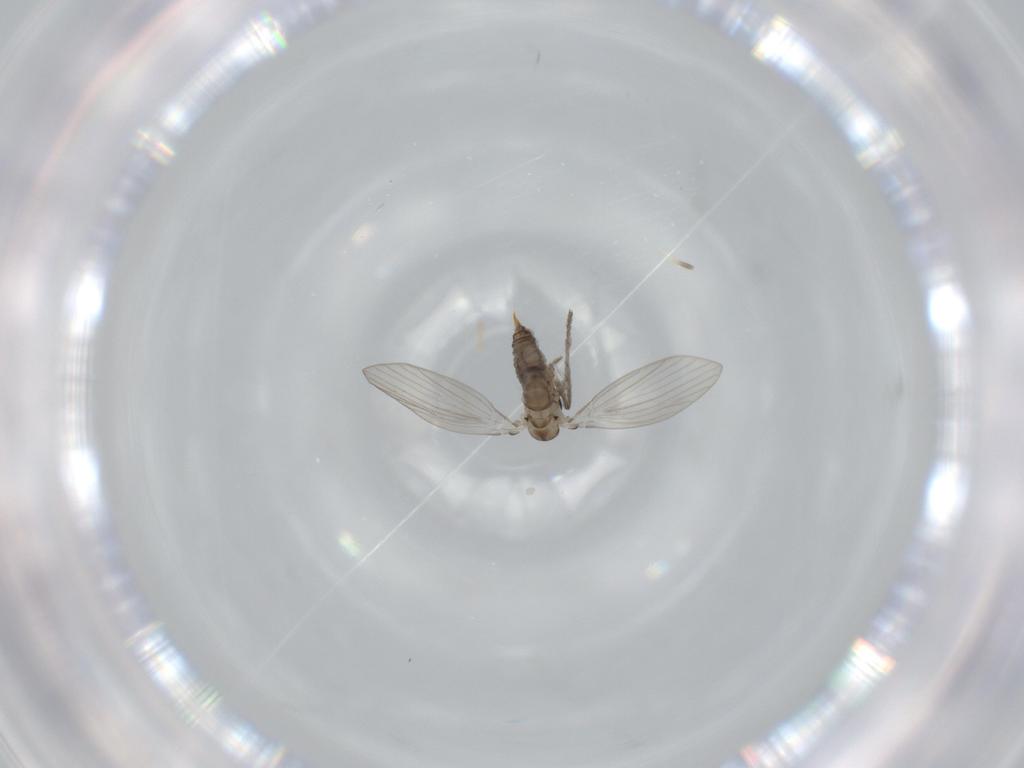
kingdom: Animalia
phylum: Arthropoda
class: Insecta
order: Diptera
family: Psychodidae
